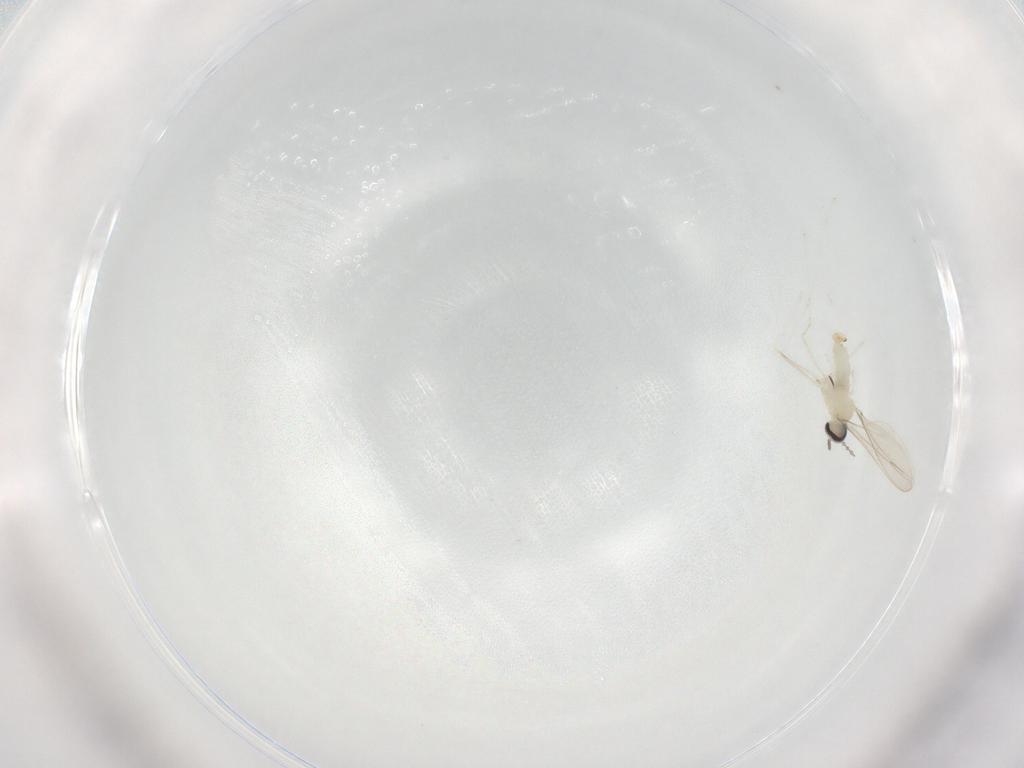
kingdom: Animalia
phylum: Arthropoda
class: Insecta
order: Diptera
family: Cecidomyiidae
